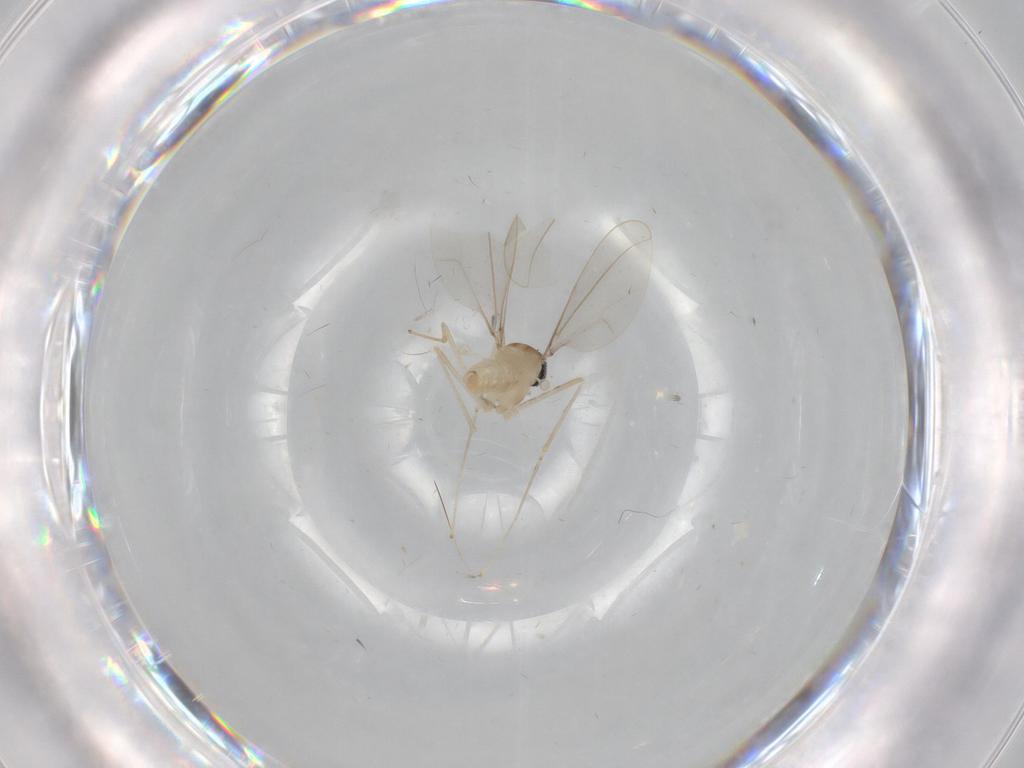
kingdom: Animalia
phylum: Arthropoda
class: Insecta
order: Diptera
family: Cecidomyiidae
